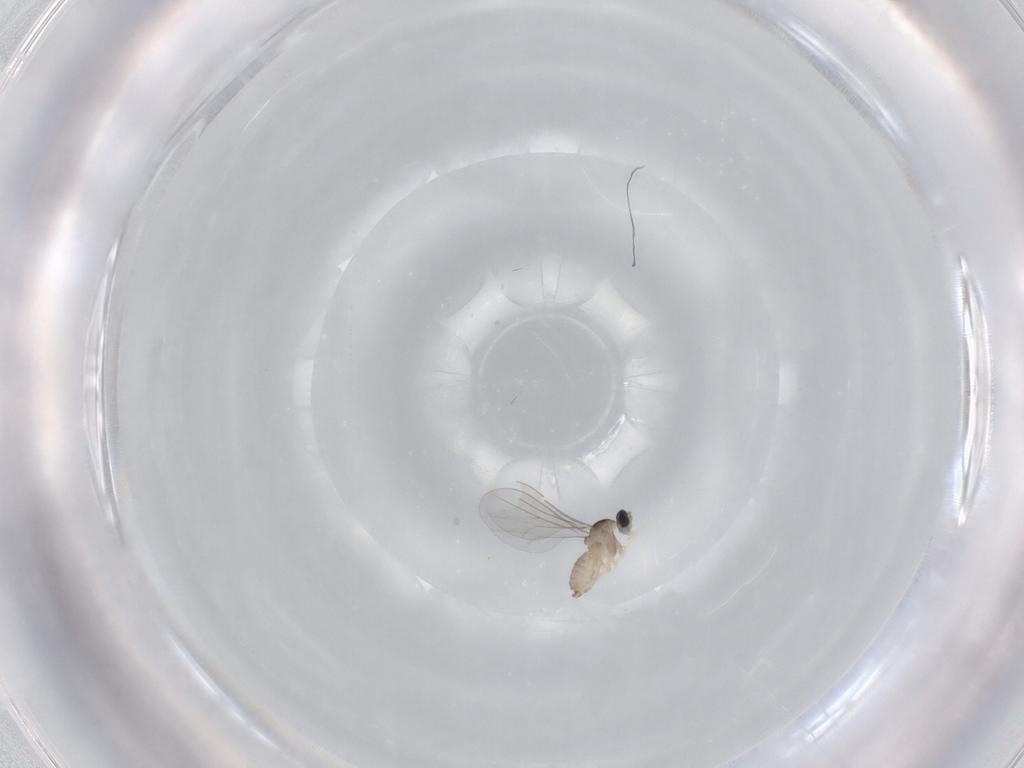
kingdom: Animalia
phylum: Arthropoda
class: Insecta
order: Diptera
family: Cecidomyiidae
